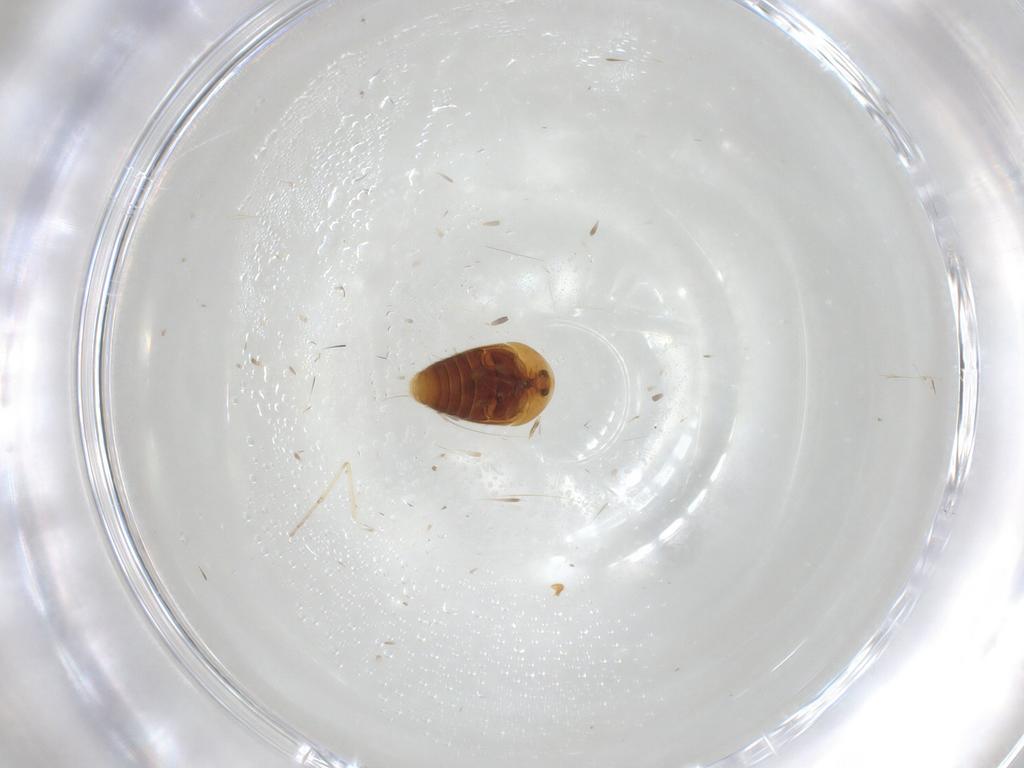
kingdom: Animalia
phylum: Arthropoda
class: Insecta
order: Coleoptera
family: Corylophidae
